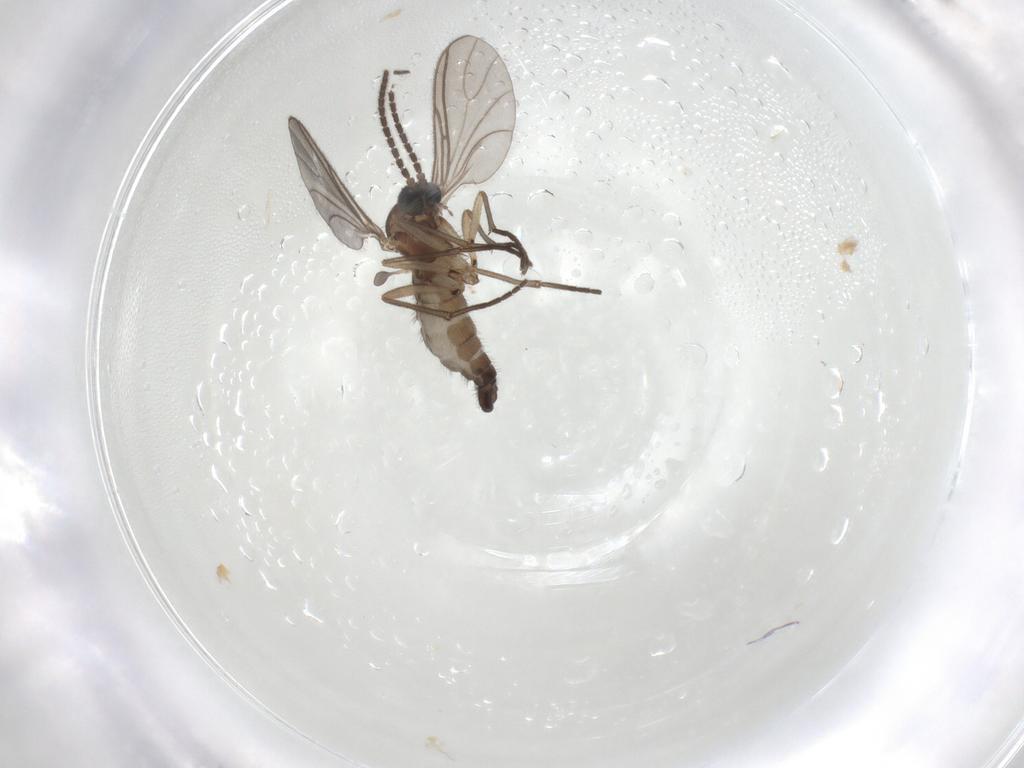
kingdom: Animalia
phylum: Arthropoda
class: Insecta
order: Diptera
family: Sciaridae
